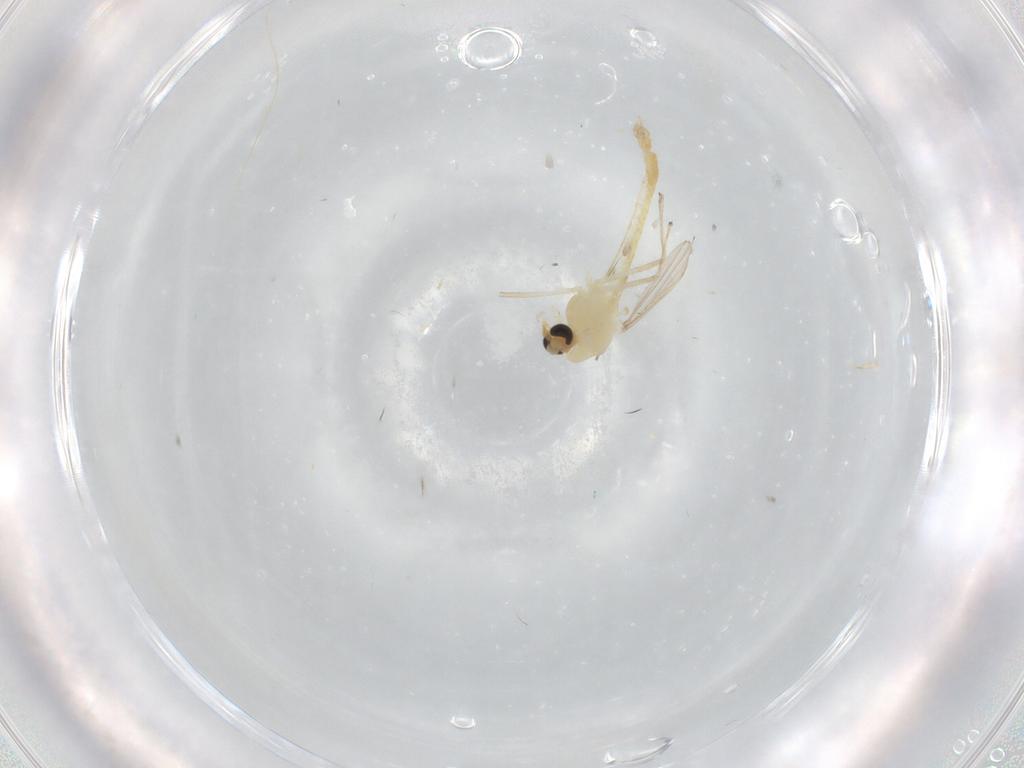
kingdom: Animalia
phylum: Arthropoda
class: Insecta
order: Diptera
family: Chironomidae
